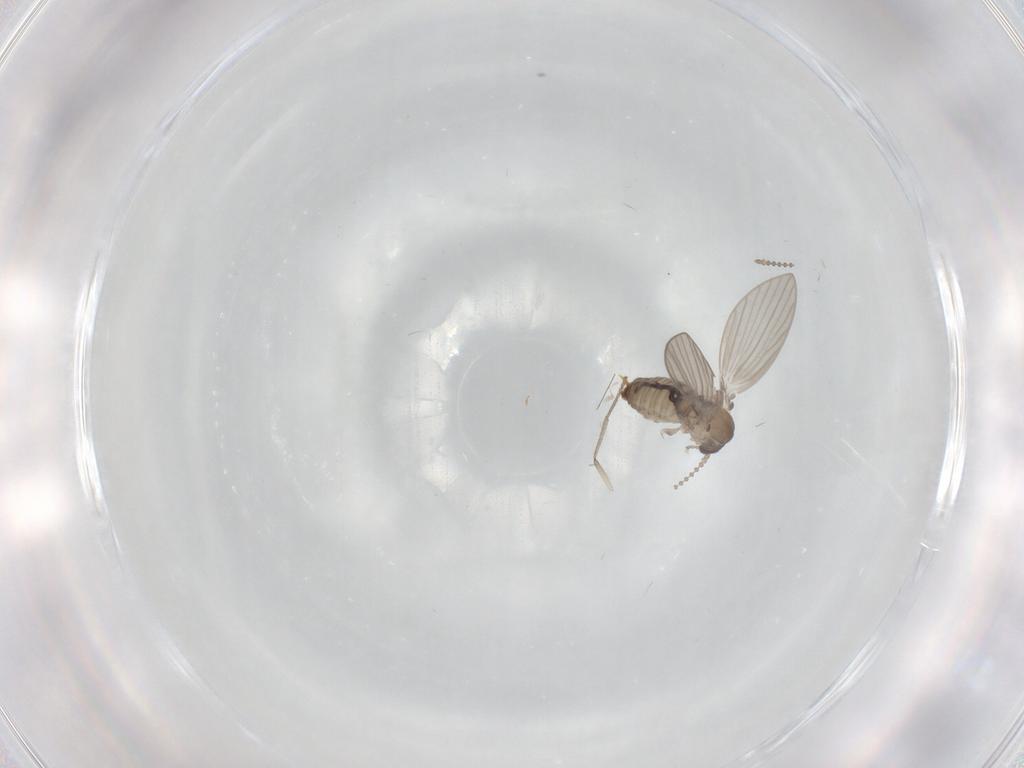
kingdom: Animalia
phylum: Arthropoda
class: Insecta
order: Diptera
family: Psychodidae
